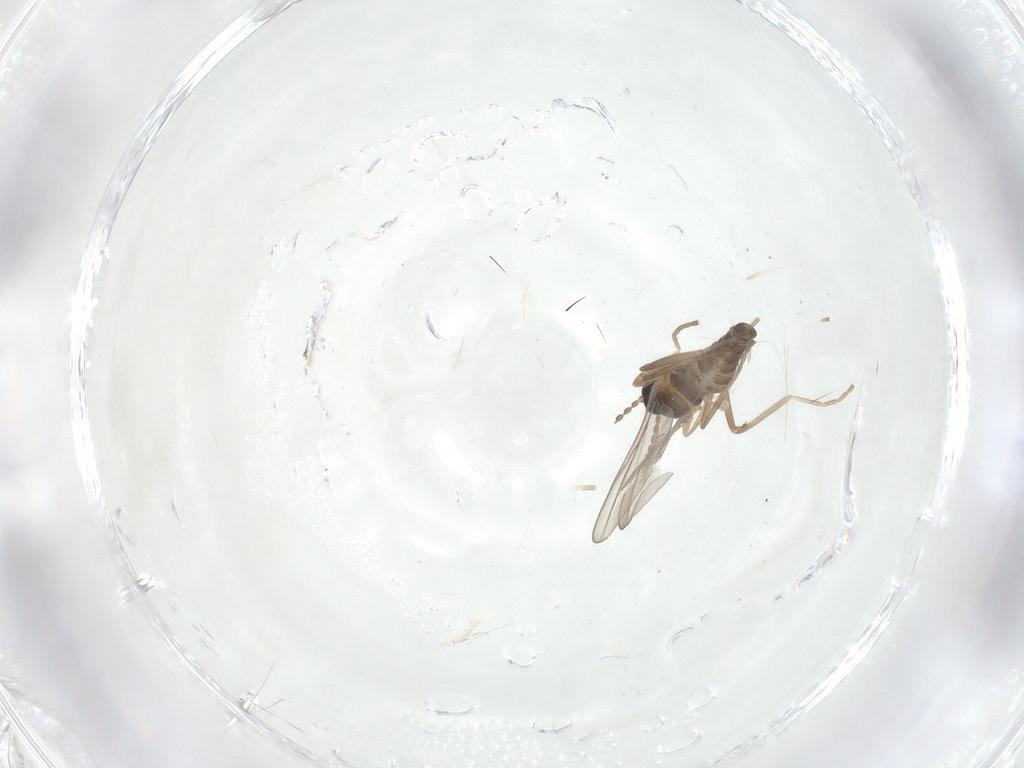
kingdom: Animalia
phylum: Arthropoda
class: Insecta
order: Diptera
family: Cecidomyiidae
